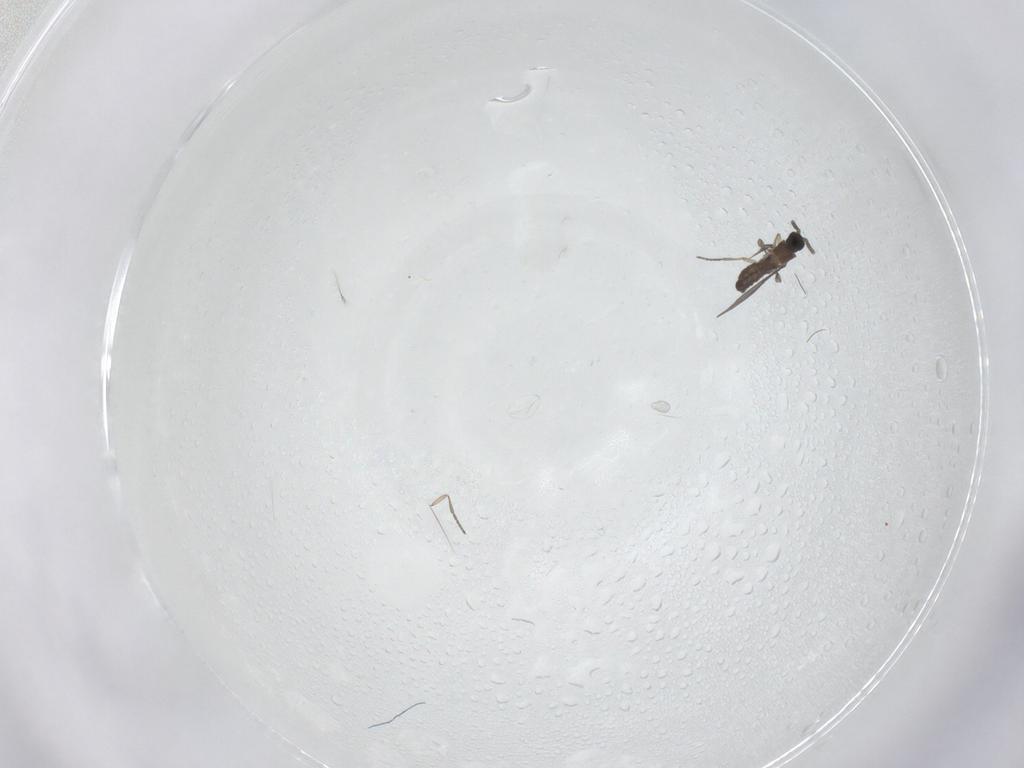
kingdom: Animalia
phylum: Arthropoda
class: Insecta
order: Diptera
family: Sciaridae
